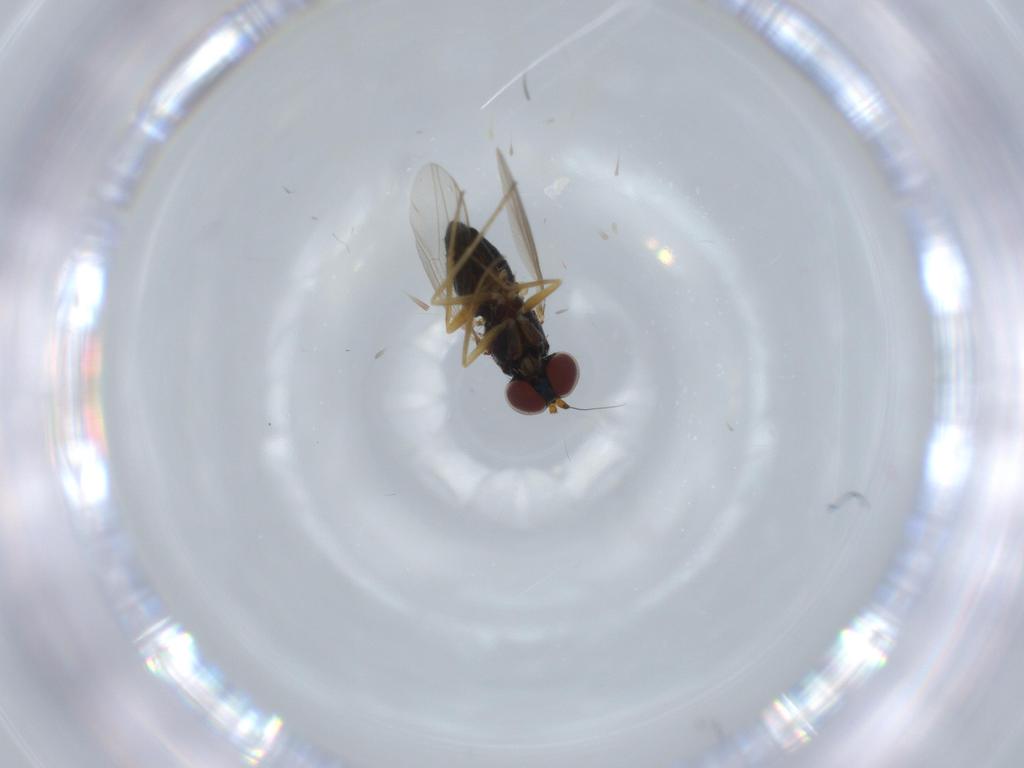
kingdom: Animalia
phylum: Arthropoda
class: Insecta
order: Diptera
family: Dolichopodidae
